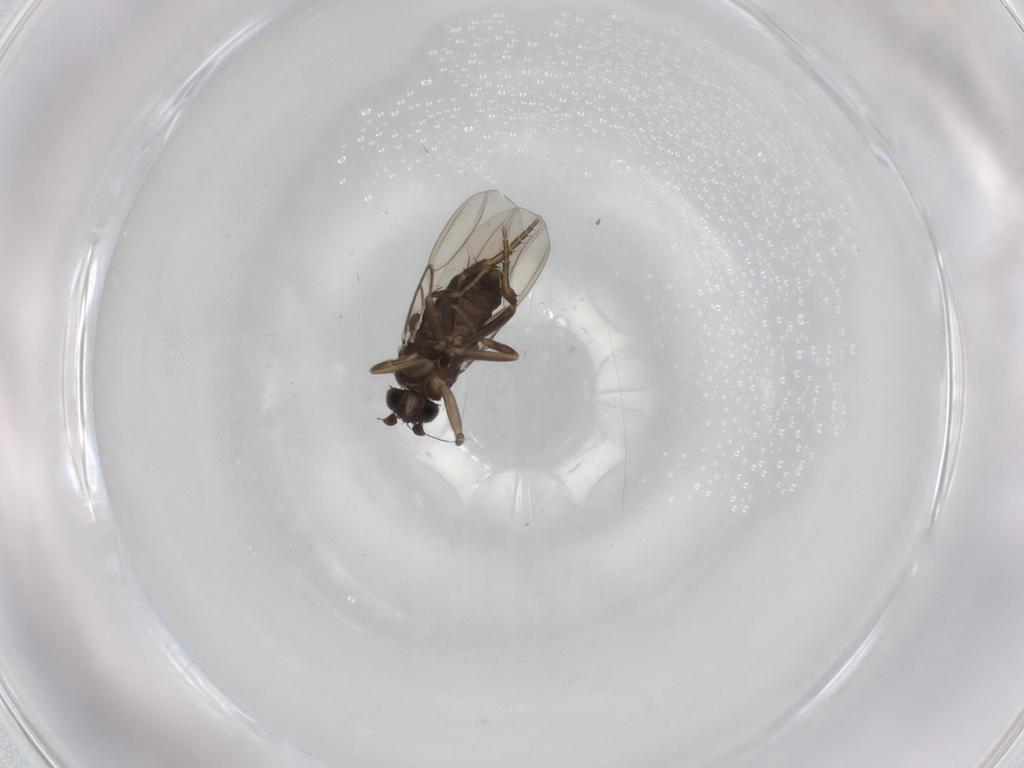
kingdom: Animalia
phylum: Arthropoda
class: Insecta
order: Diptera
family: Phoridae
